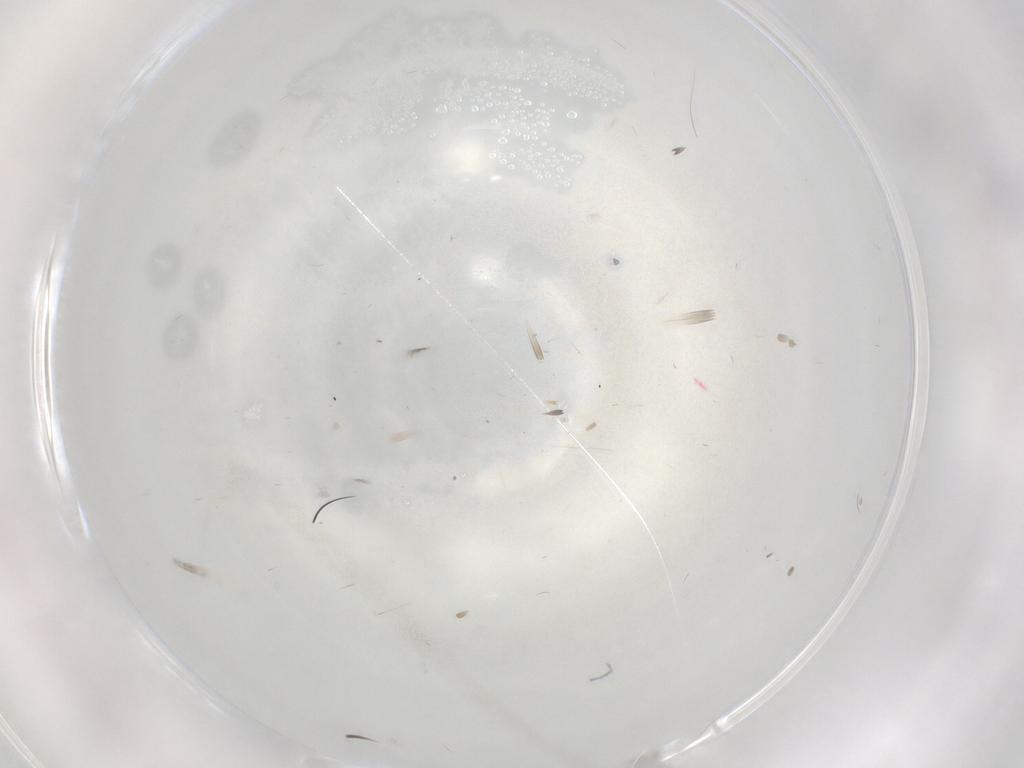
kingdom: Animalia
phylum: Arthropoda
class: Insecta
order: Diptera
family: Cecidomyiidae
